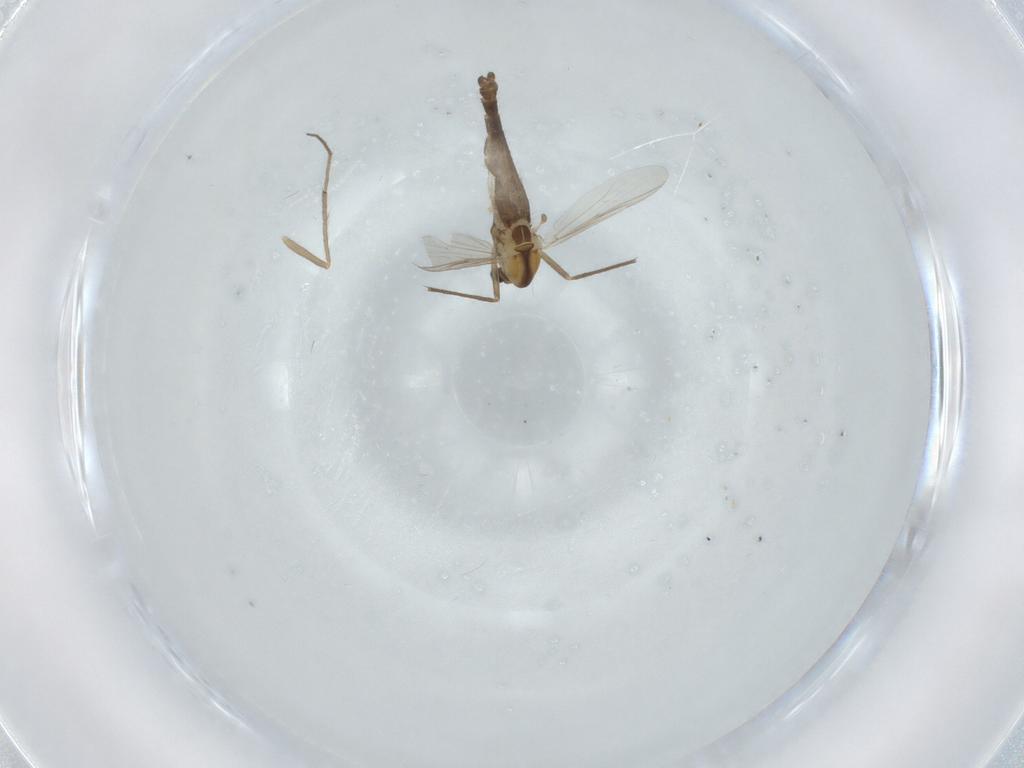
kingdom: Animalia
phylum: Arthropoda
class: Insecta
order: Diptera
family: Chironomidae
